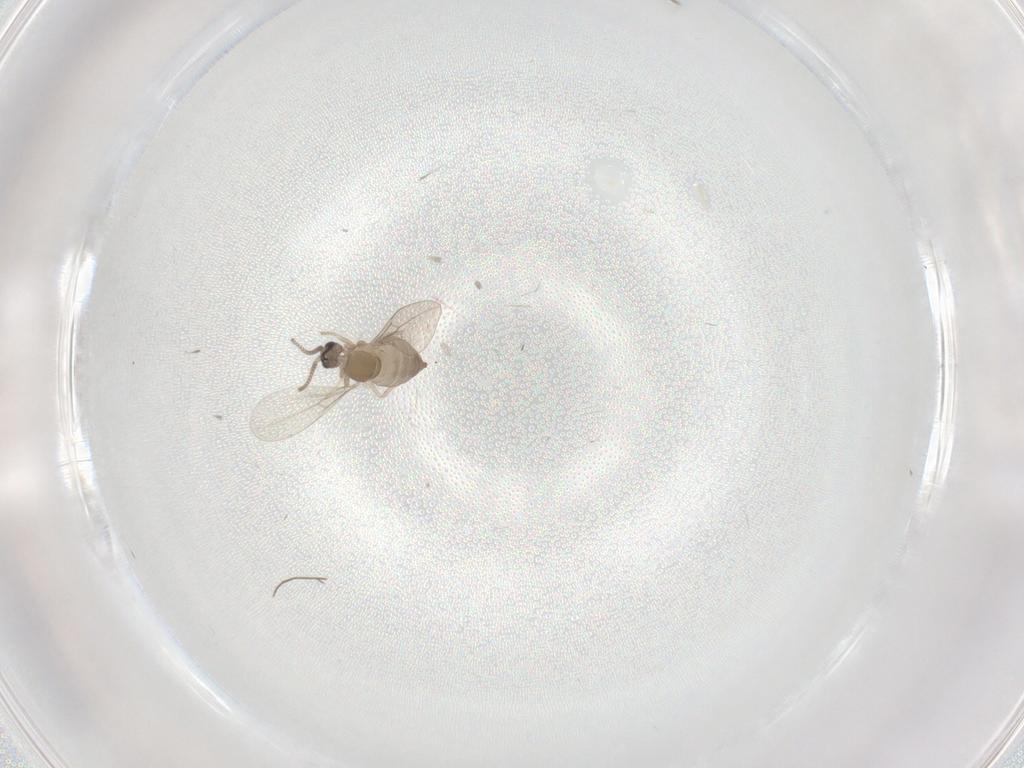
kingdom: Animalia
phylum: Arthropoda
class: Insecta
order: Diptera
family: Cecidomyiidae
